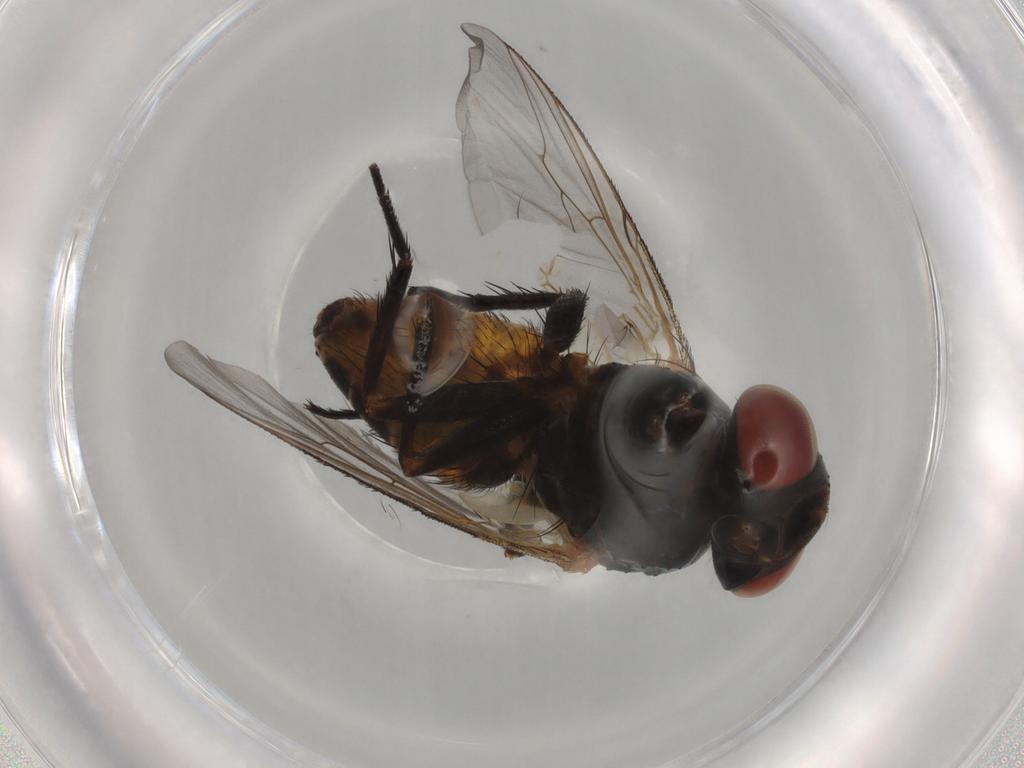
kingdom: Animalia
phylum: Arthropoda
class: Insecta
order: Diptera
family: Sarcophagidae
